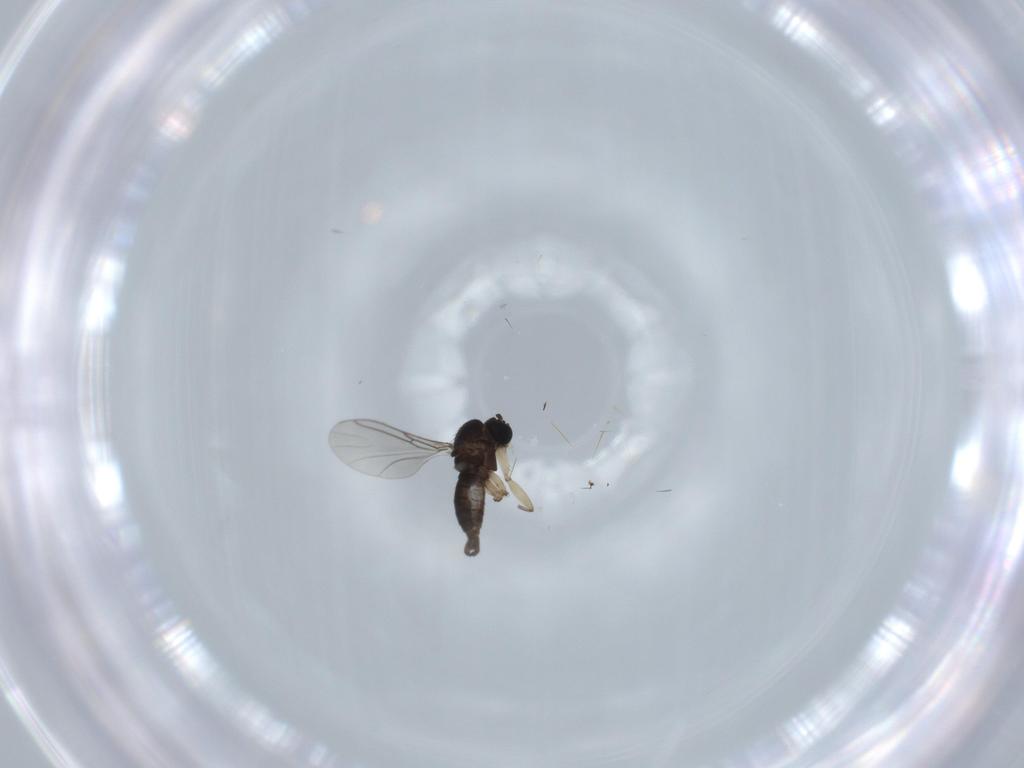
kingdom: Animalia
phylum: Arthropoda
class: Insecta
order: Diptera
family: Sciaridae
